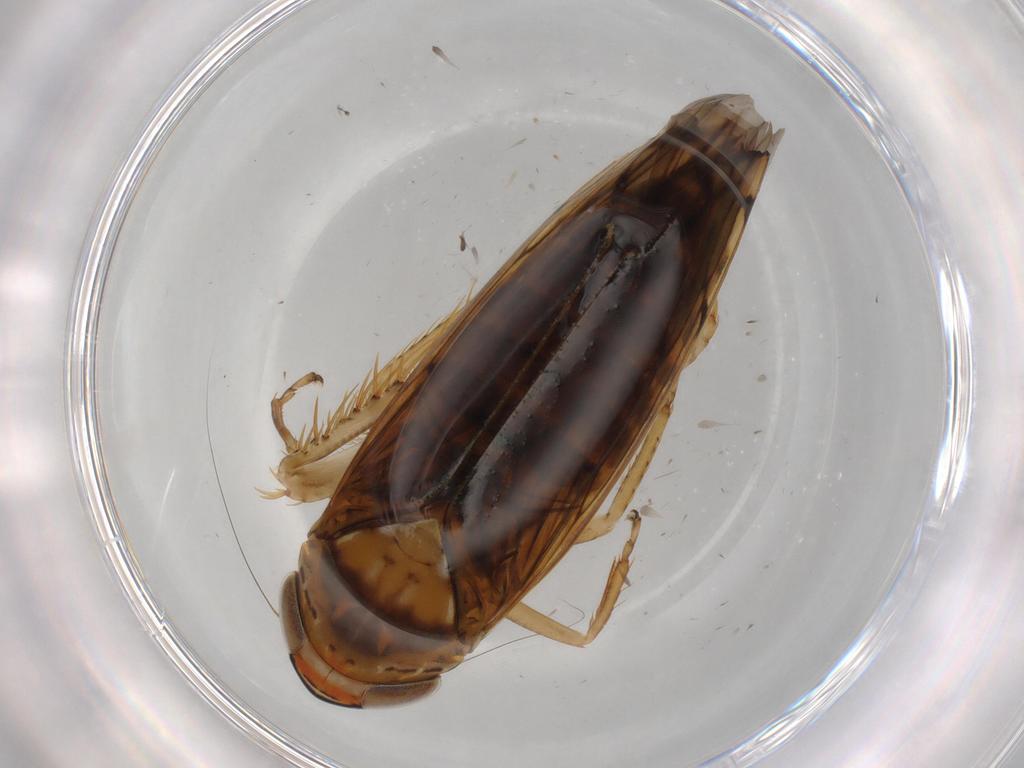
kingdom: Animalia
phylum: Arthropoda
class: Insecta
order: Hemiptera
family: Cicadellidae
